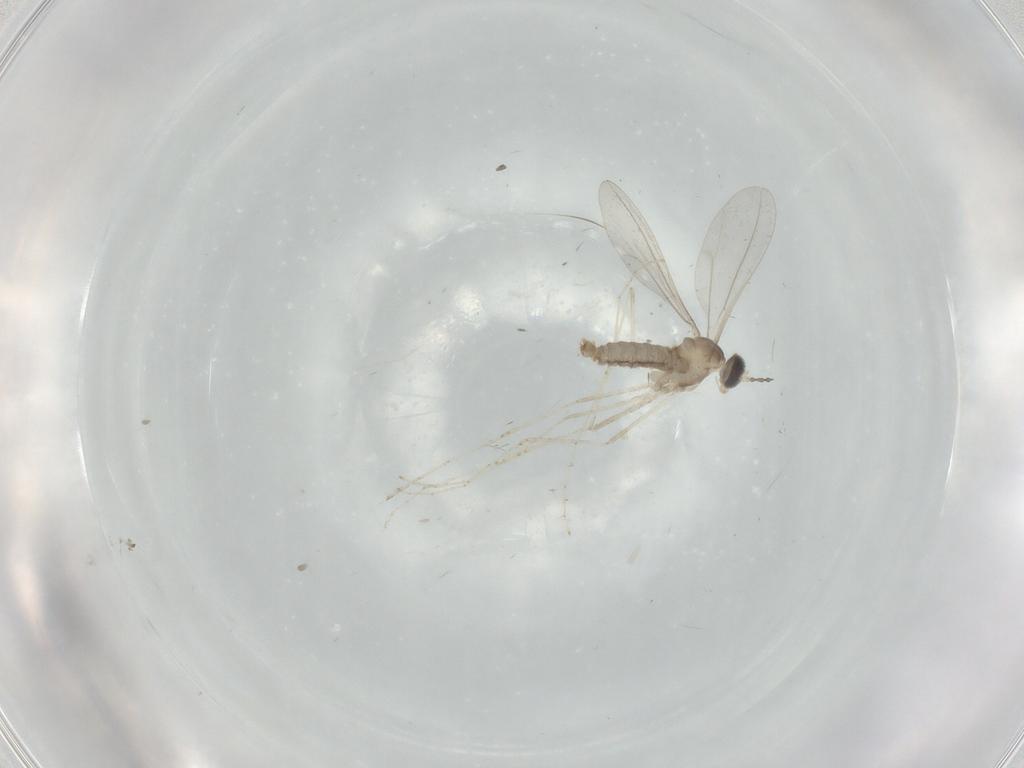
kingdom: Animalia
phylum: Arthropoda
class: Insecta
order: Diptera
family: Cecidomyiidae
